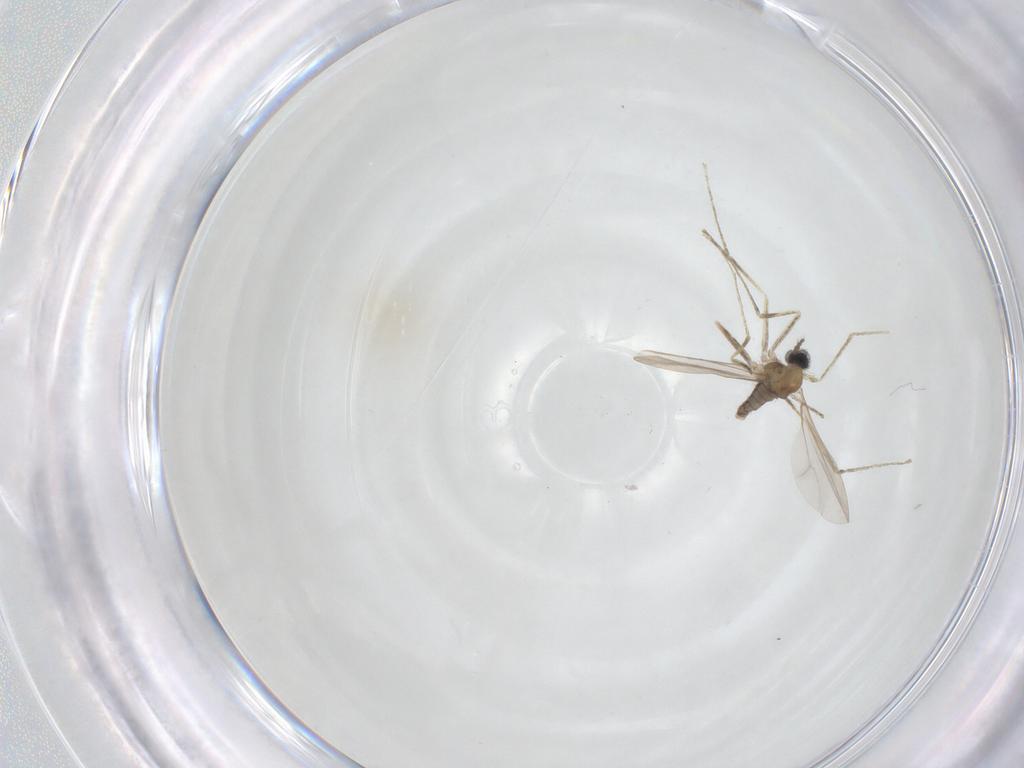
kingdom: Animalia
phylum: Arthropoda
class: Insecta
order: Diptera
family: Cecidomyiidae
